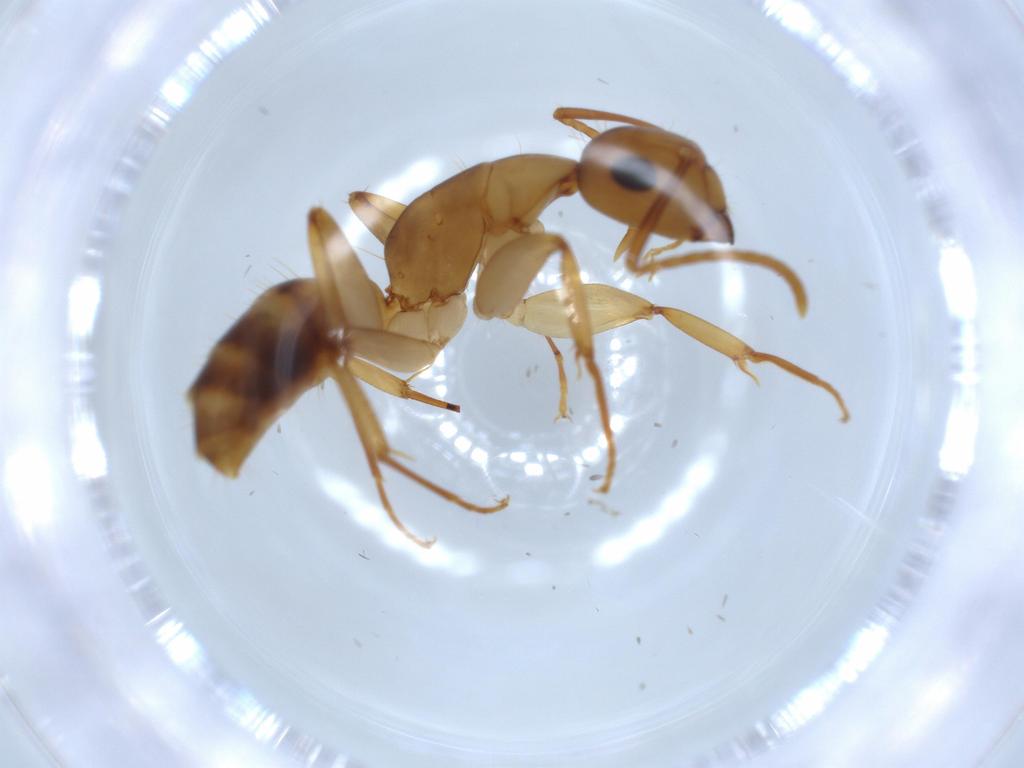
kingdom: Animalia
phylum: Arthropoda
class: Insecta
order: Hymenoptera
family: Formicidae
